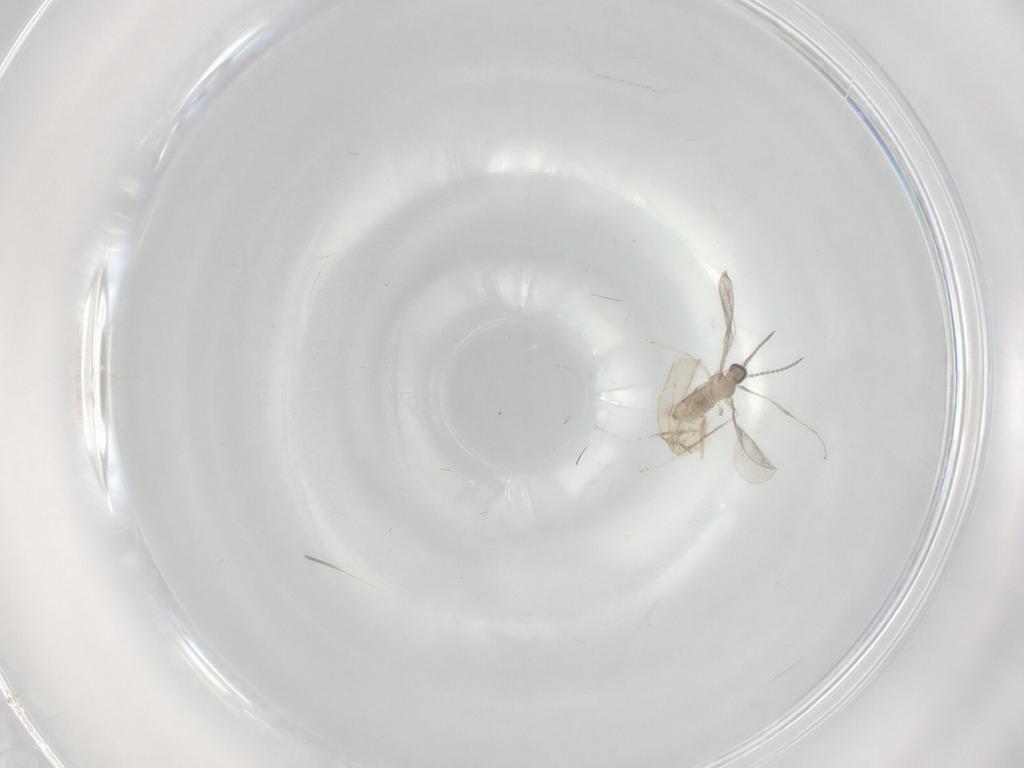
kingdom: Animalia
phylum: Arthropoda
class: Insecta
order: Diptera
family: Cecidomyiidae
